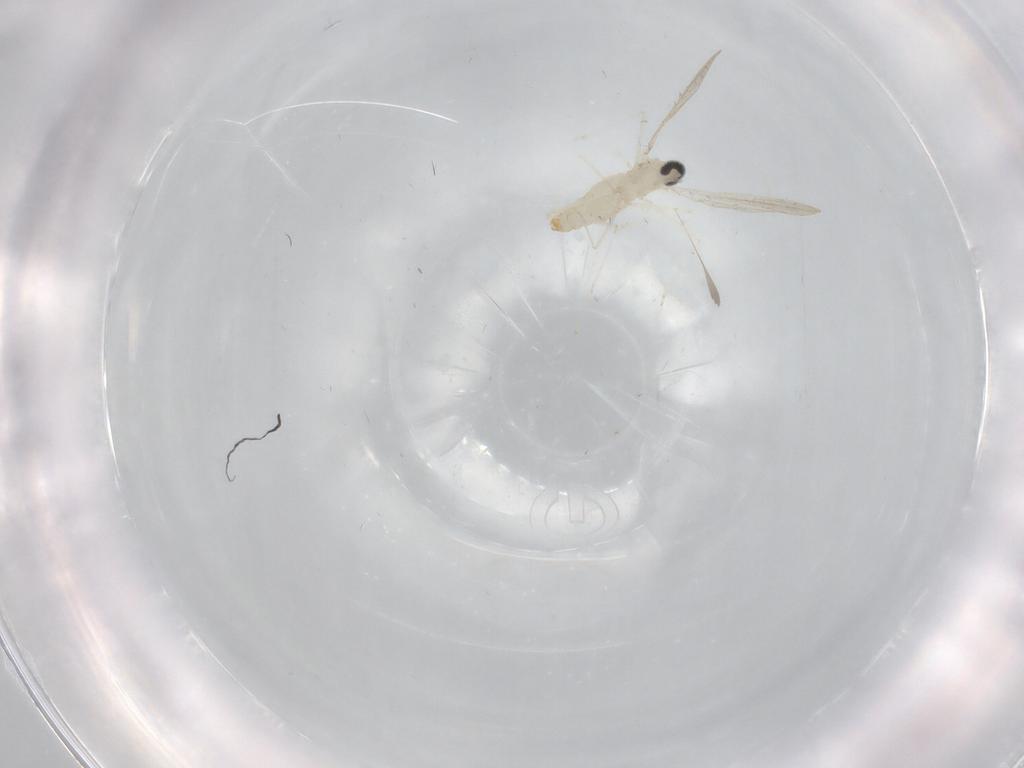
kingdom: Animalia
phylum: Arthropoda
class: Insecta
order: Diptera
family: Cecidomyiidae
